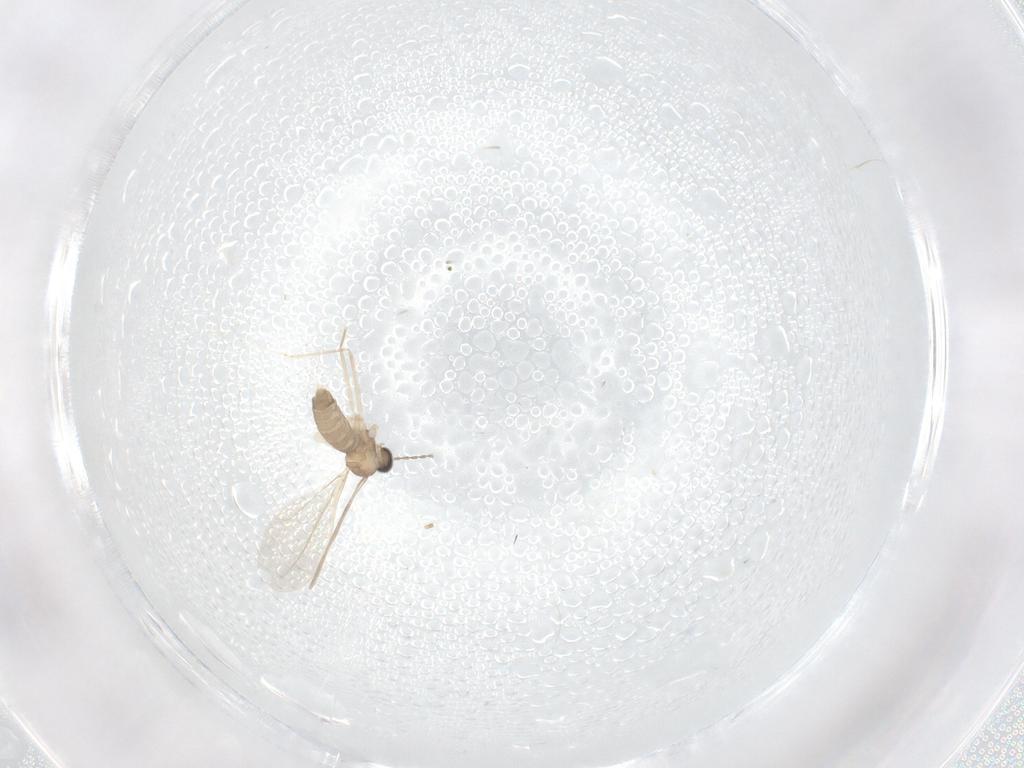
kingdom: Animalia
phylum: Arthropoda
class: Insecta
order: Diptera
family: Cecidomyiidae
